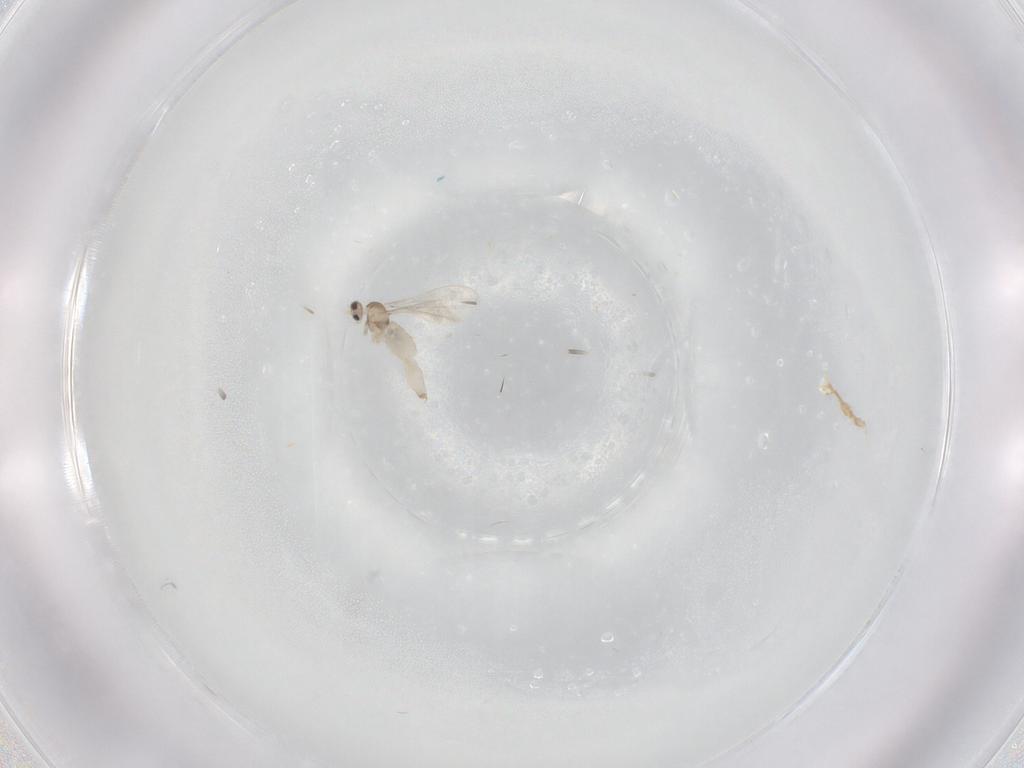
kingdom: Animalia
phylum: Arthropoda
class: Insecta
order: Diptera
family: Cecidomyiidae
